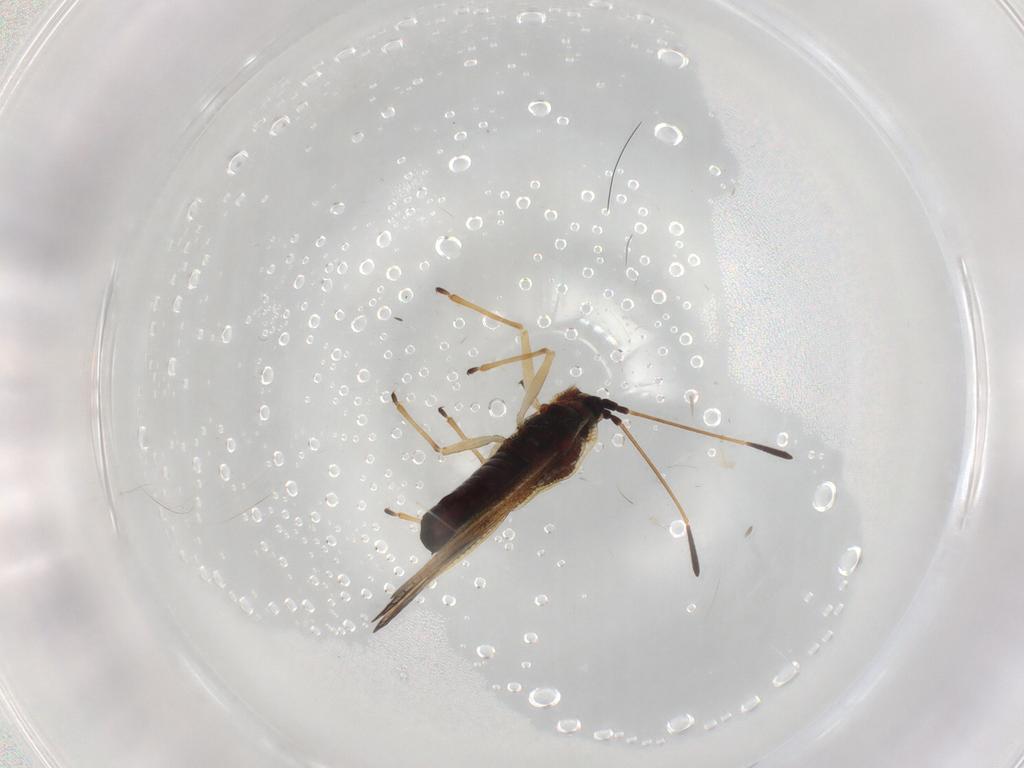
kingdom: Animalia
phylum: Arthropoda
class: Insecta
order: Hemiptera
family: Tingidae
